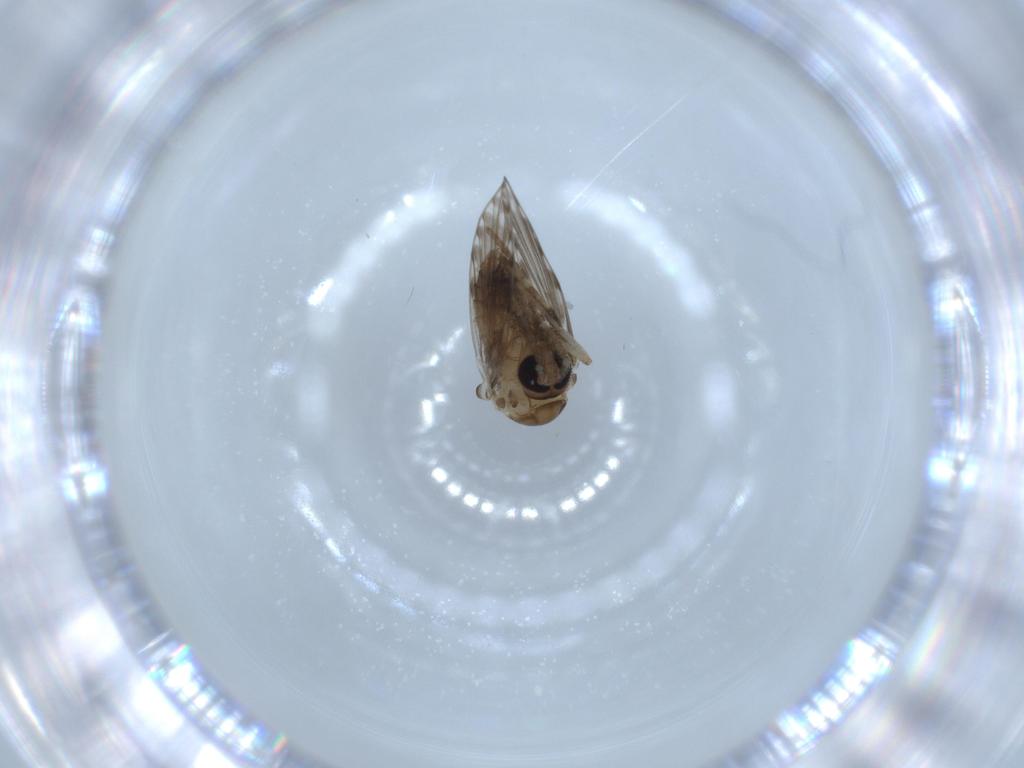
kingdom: Animalia
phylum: Arthropoda
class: Insecta
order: Diptera
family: Psychodidae
